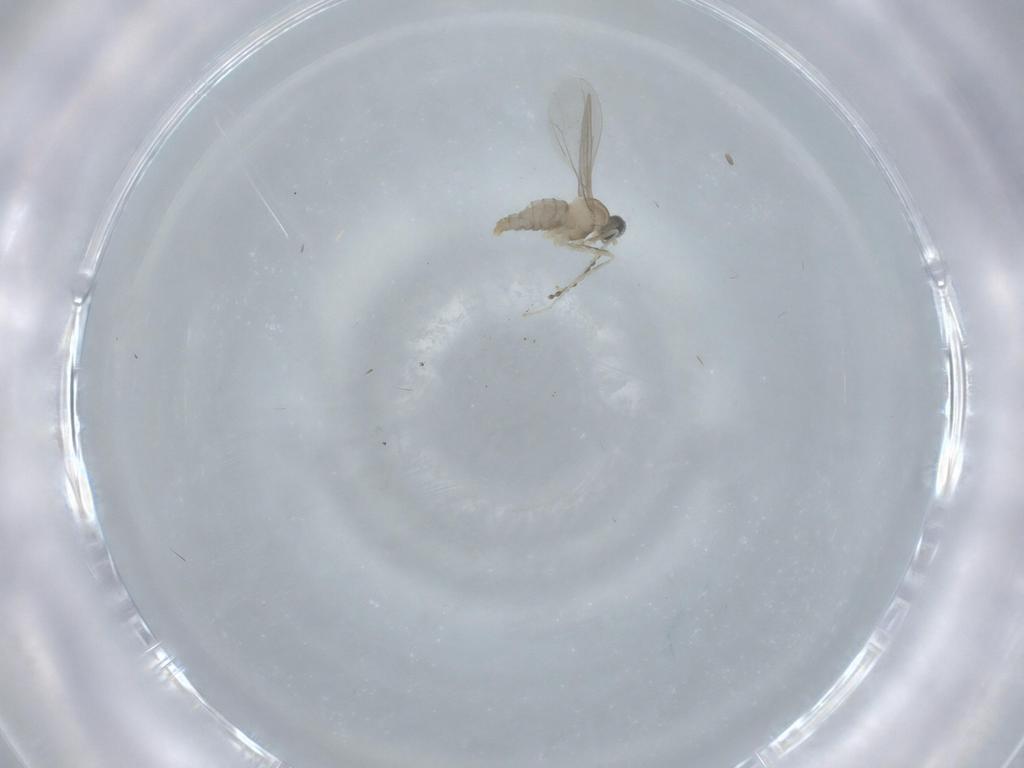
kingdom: Animalia
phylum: Arthropoda
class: Insecta
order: Diptera
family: Cecidomyiidae
